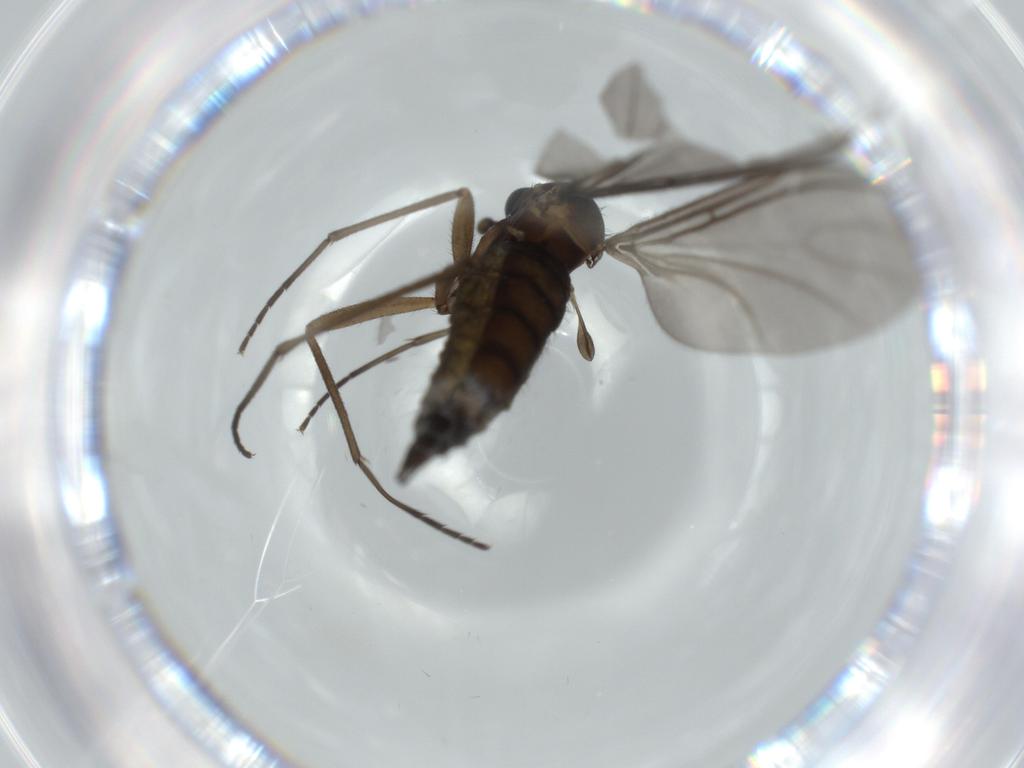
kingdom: Animalia
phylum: Arthropoda
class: Insecta
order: Diptera
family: Sciaridae
